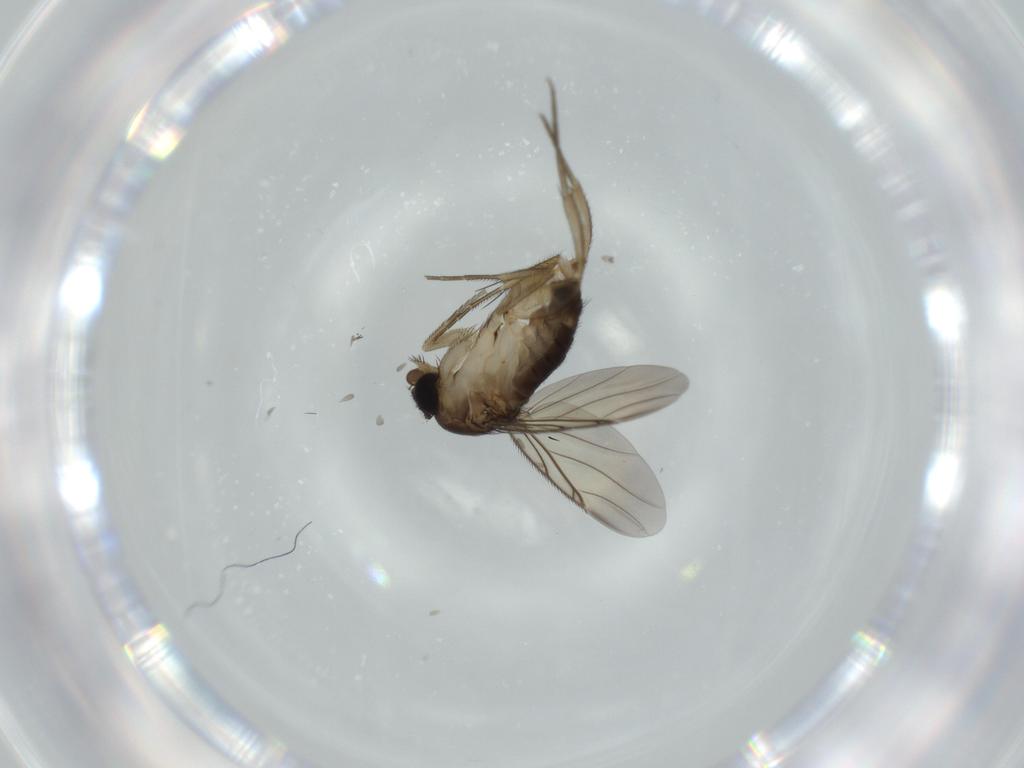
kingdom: Animalia
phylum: Arthropoda
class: Insecta
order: Diptera
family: Phoridae
